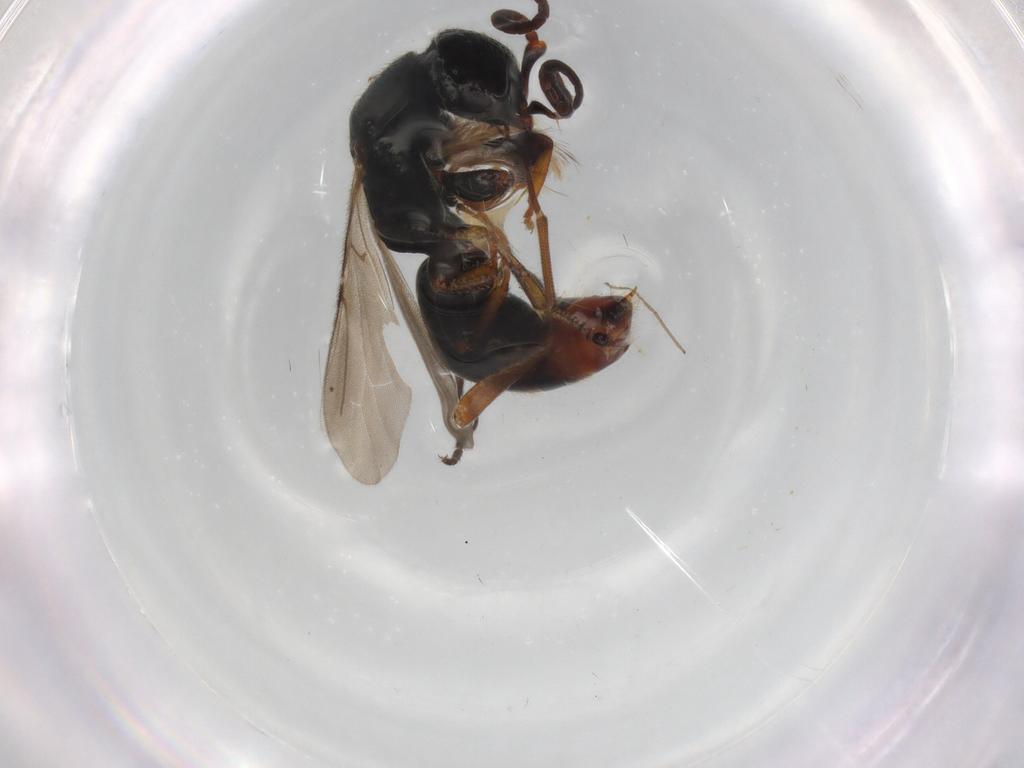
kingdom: Animalia
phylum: Arthropoda
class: Insecta
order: Hymenoptera
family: Bethylidae
